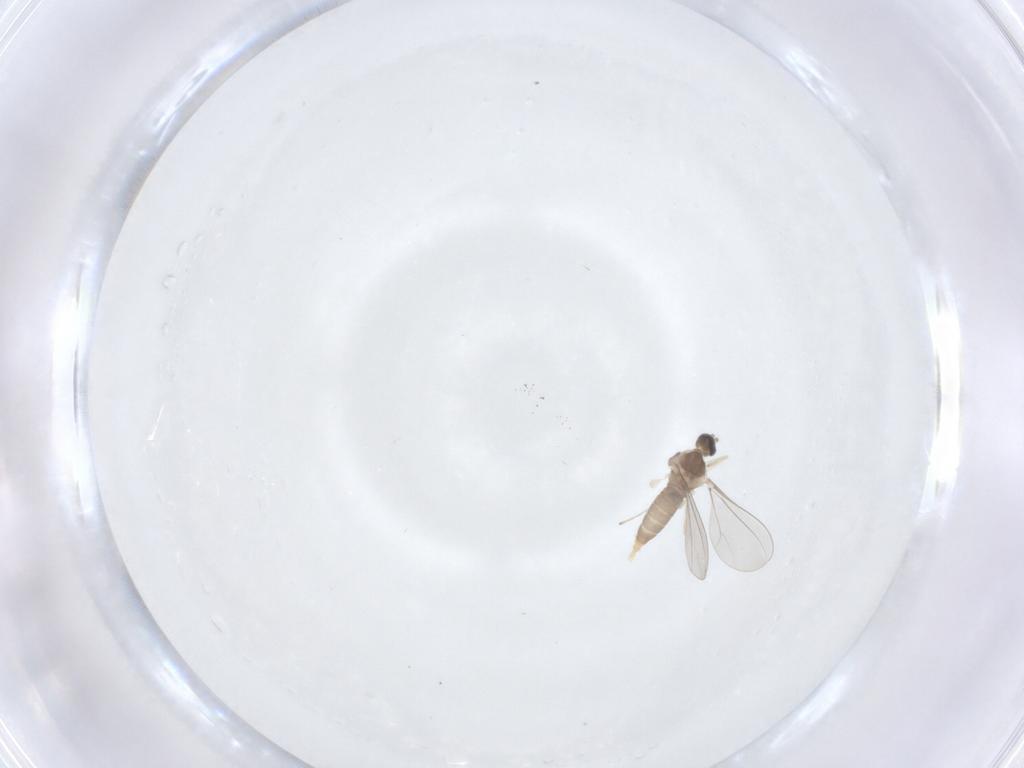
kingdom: Animalia
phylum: Arthropoda
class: Insecta
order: Diptera
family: Cecidomyiidae
